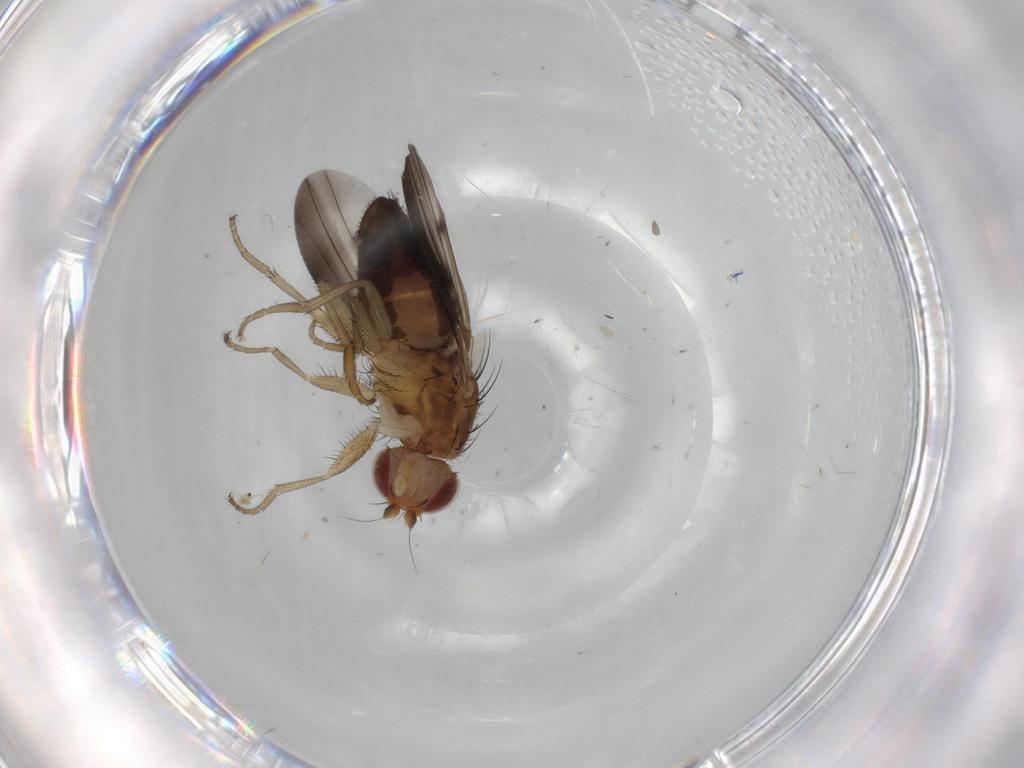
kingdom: Animalia
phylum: Arthropoda
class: Insecta
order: Diptera
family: Heleomyzidae
